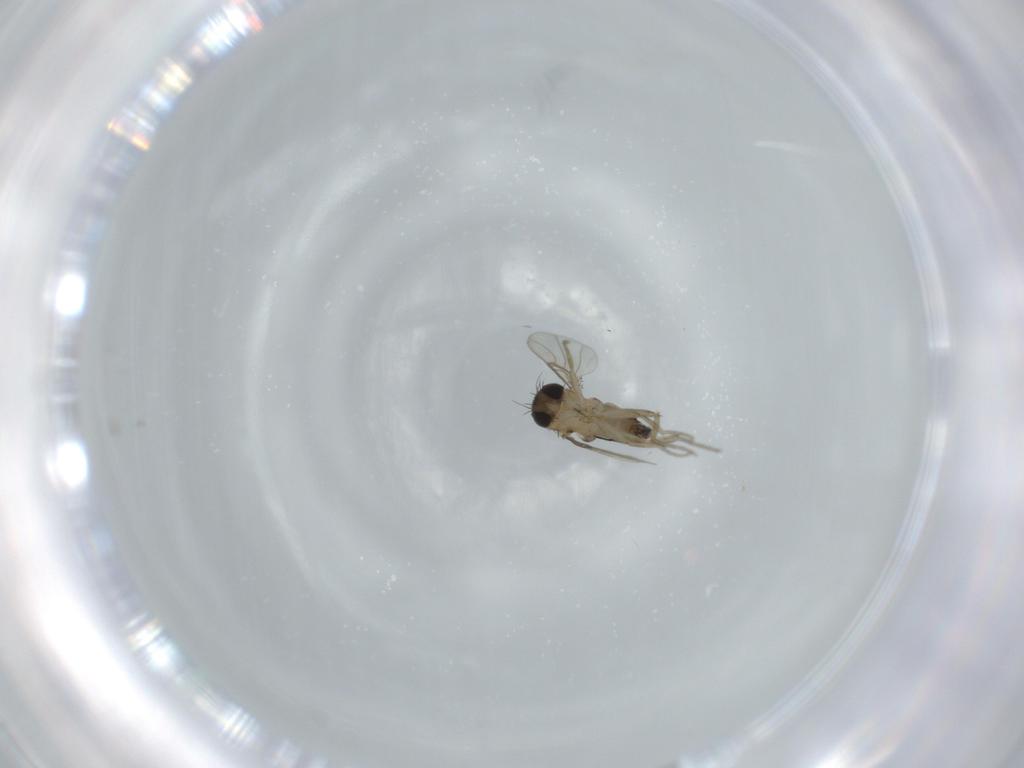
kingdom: Animalia
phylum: Arthropoda
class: Insecta
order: Diptera
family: Phoridae
